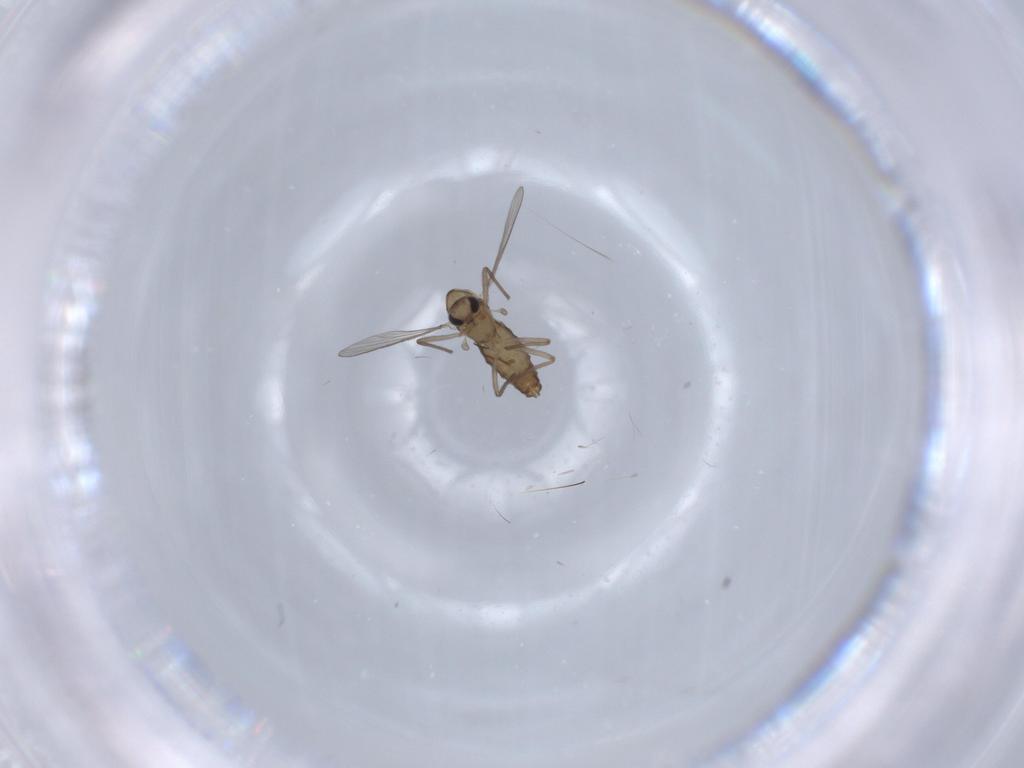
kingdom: Animalia
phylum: Arthropoda
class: Insecta
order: Diptera
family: Chironomidae
